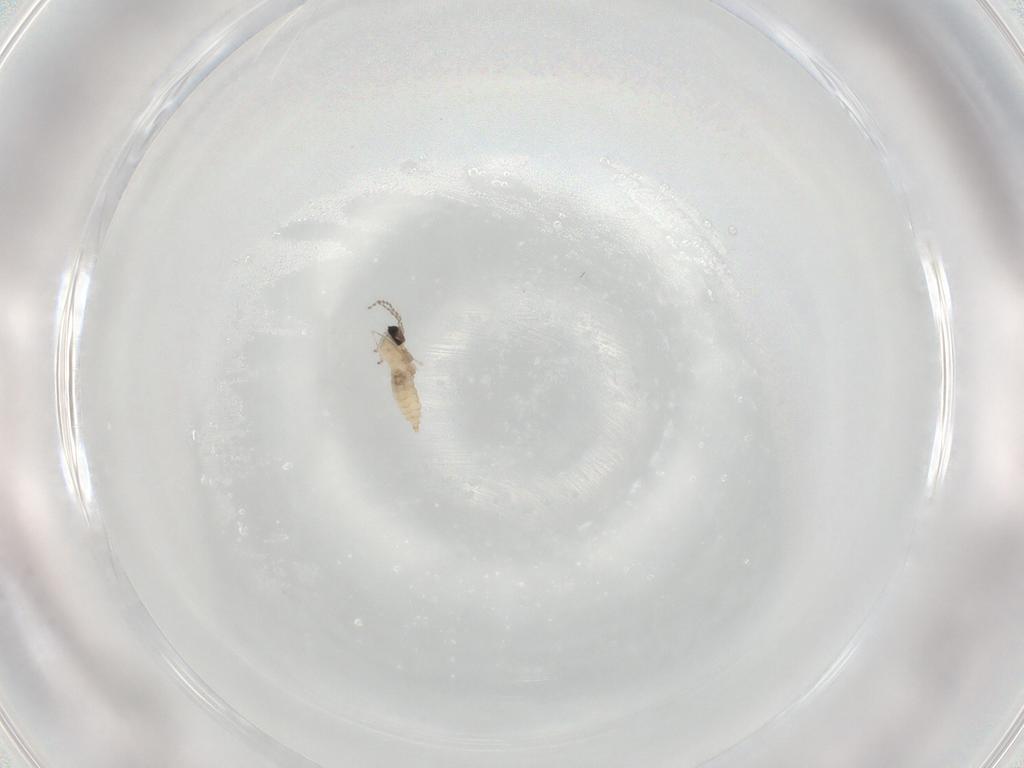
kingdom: Animalia
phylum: Arthropoda
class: Insecta
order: Diptera
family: Cecidomyiidae
